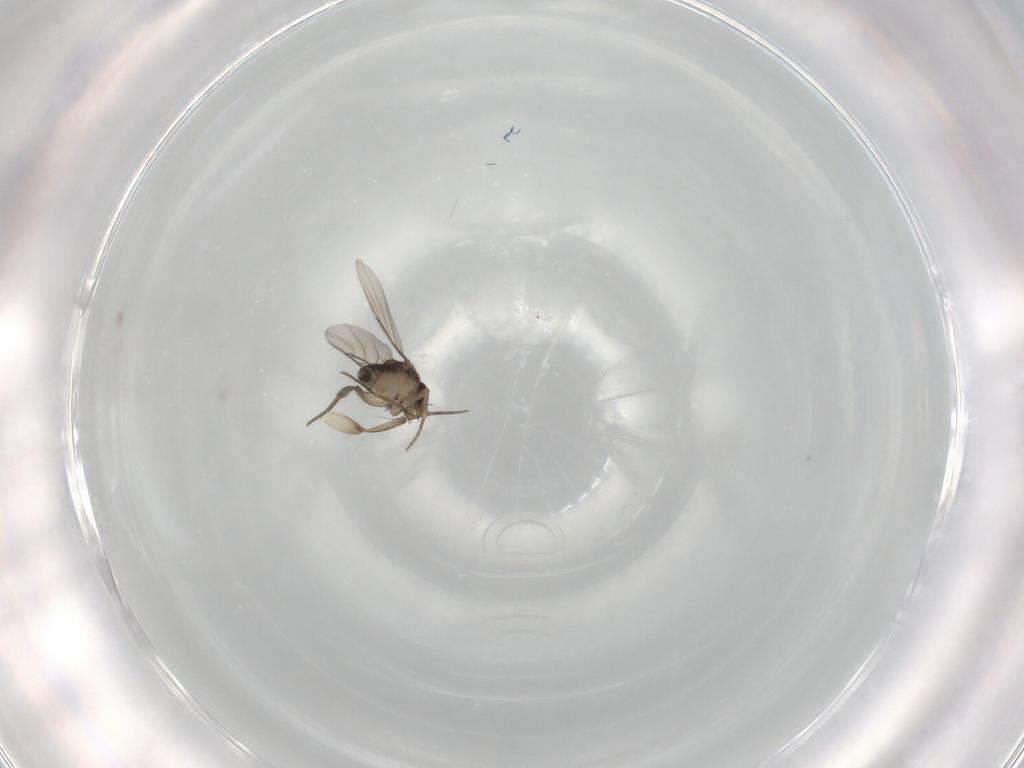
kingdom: Animalia
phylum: Arthropoda
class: Insecta
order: Diptera
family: Phoridae
